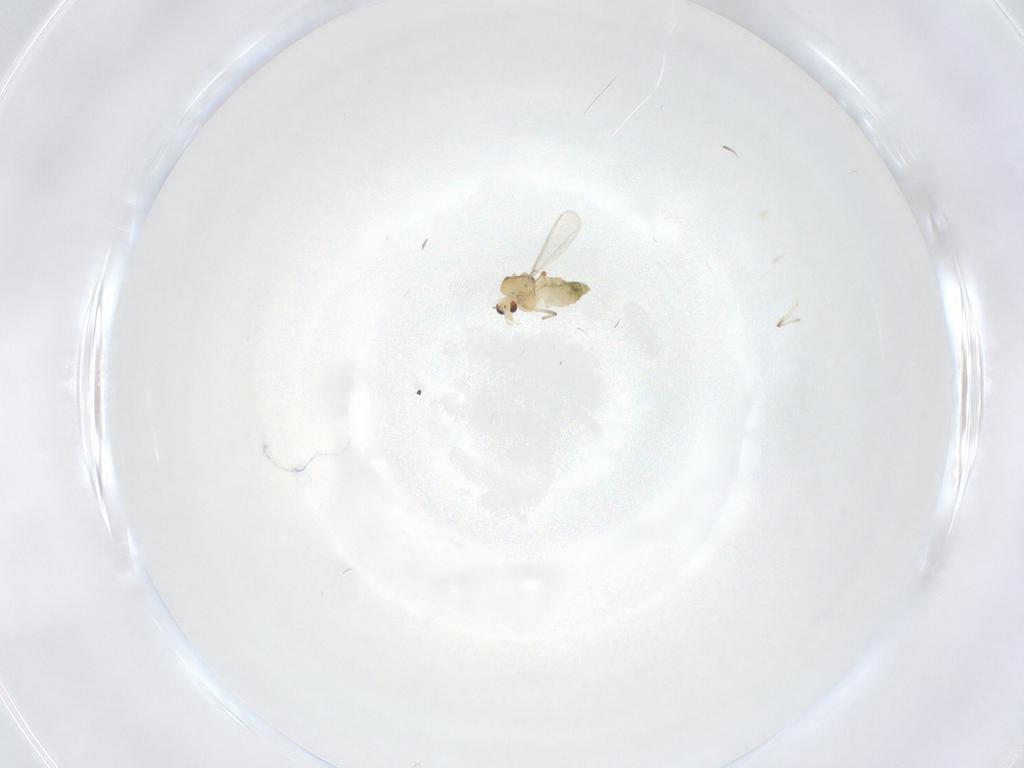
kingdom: Animalia
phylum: Arthropoda
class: Insecta
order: Diptera
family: Chironomidae
